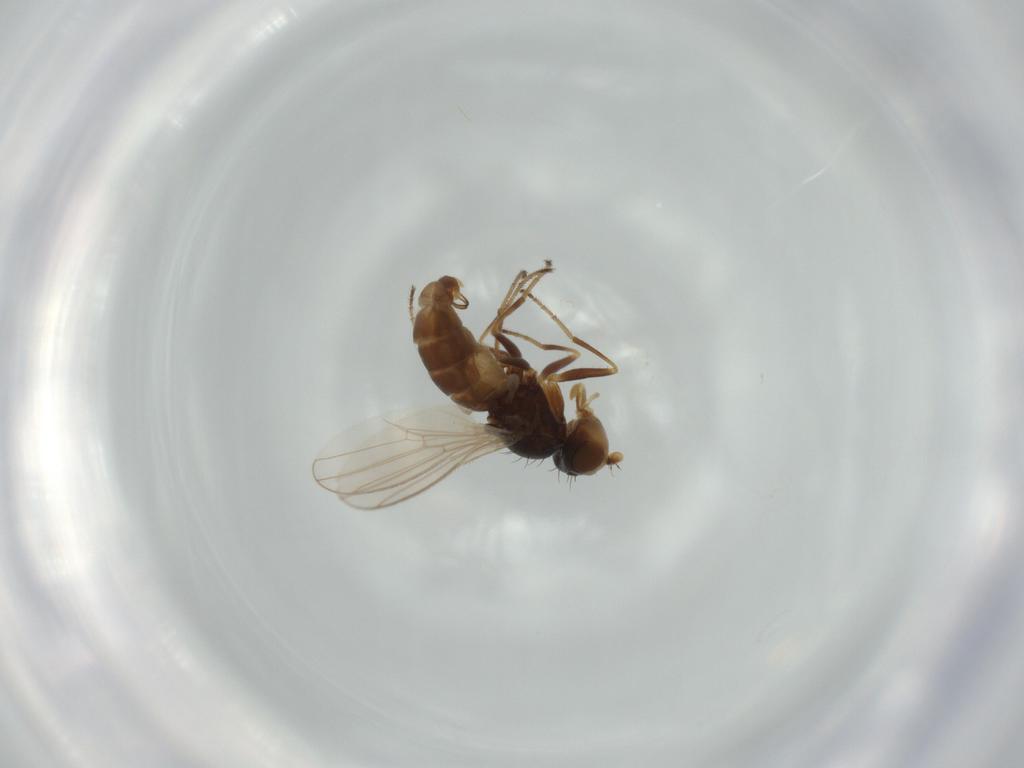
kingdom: Animalia
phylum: Arthropoda
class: Insecta
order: Diptera
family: Canacidae
